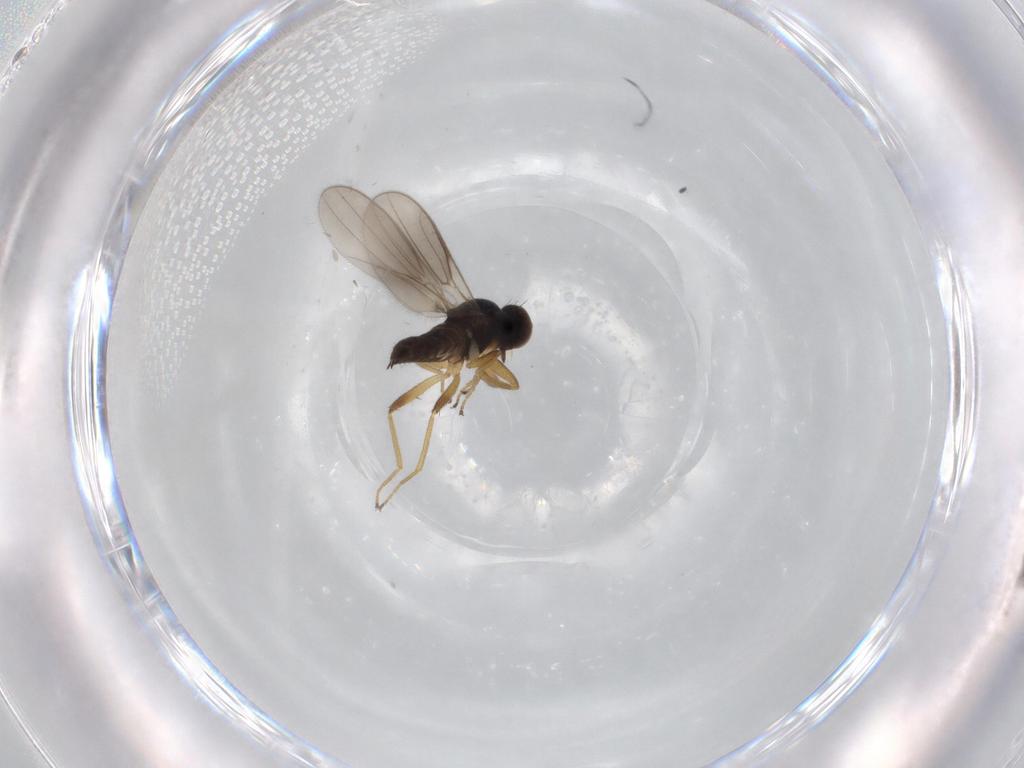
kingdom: Animalia
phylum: Arthropoda
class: Insecta
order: Diptera
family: Hybotidae
